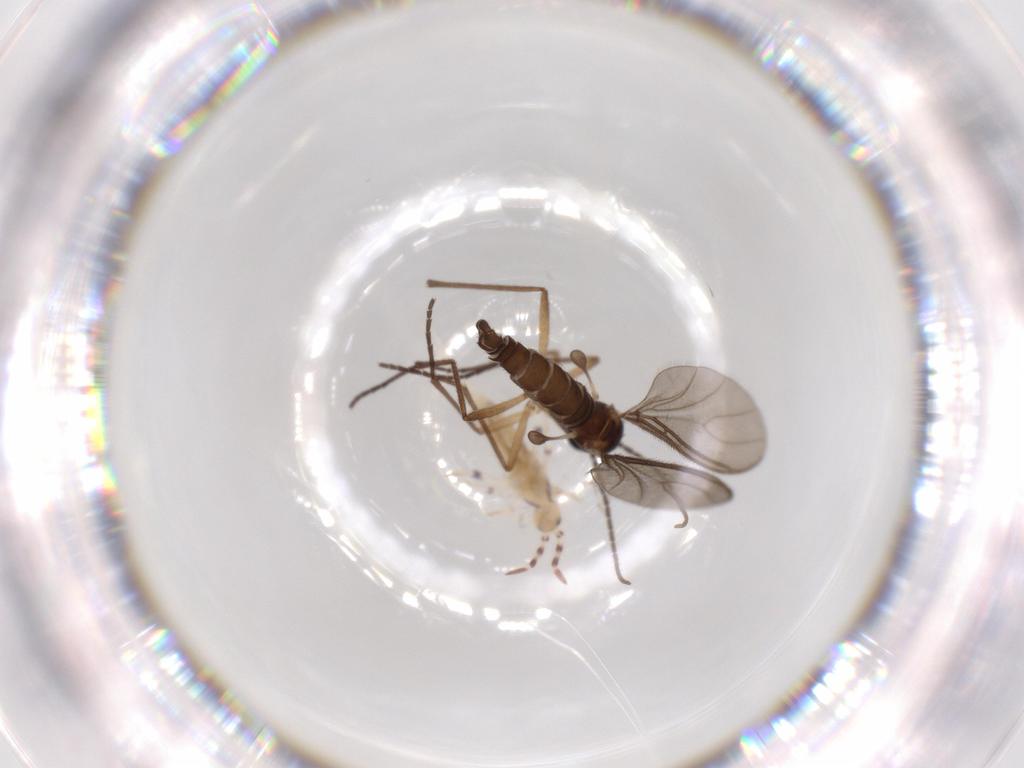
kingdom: Animalia
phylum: Arthropoda
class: Collembola
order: Entomobryomorpha
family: Entomobryidae
